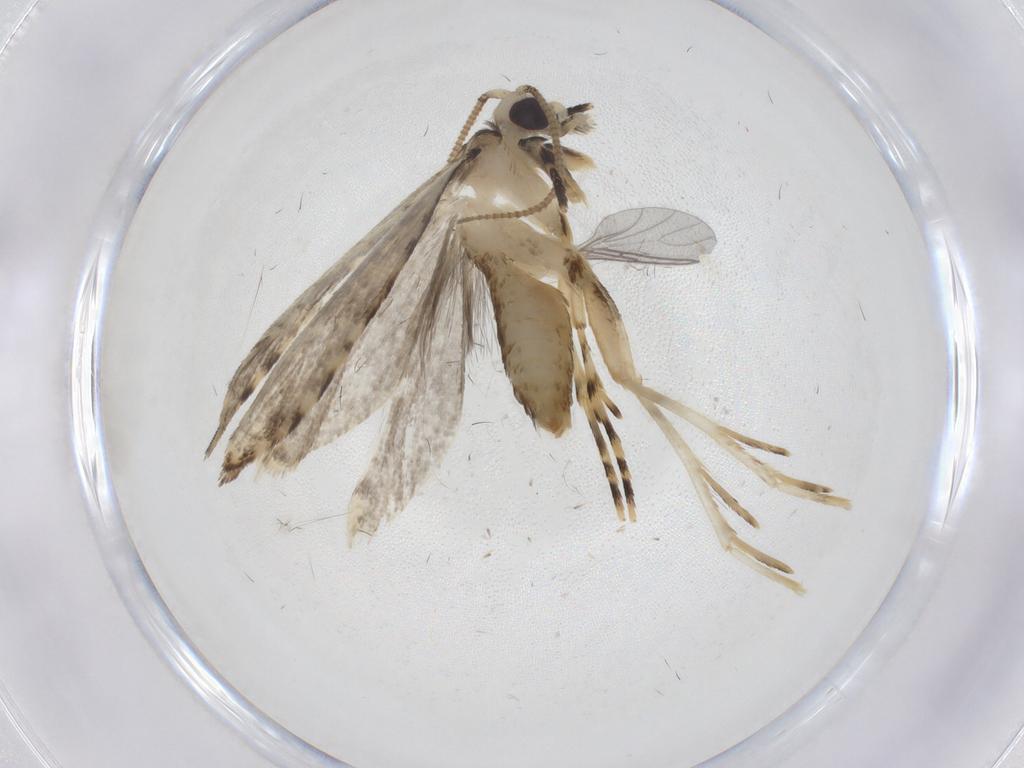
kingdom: Animalia
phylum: Arthropoda
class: Insecta
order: Lepidoptera
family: Tineidae
